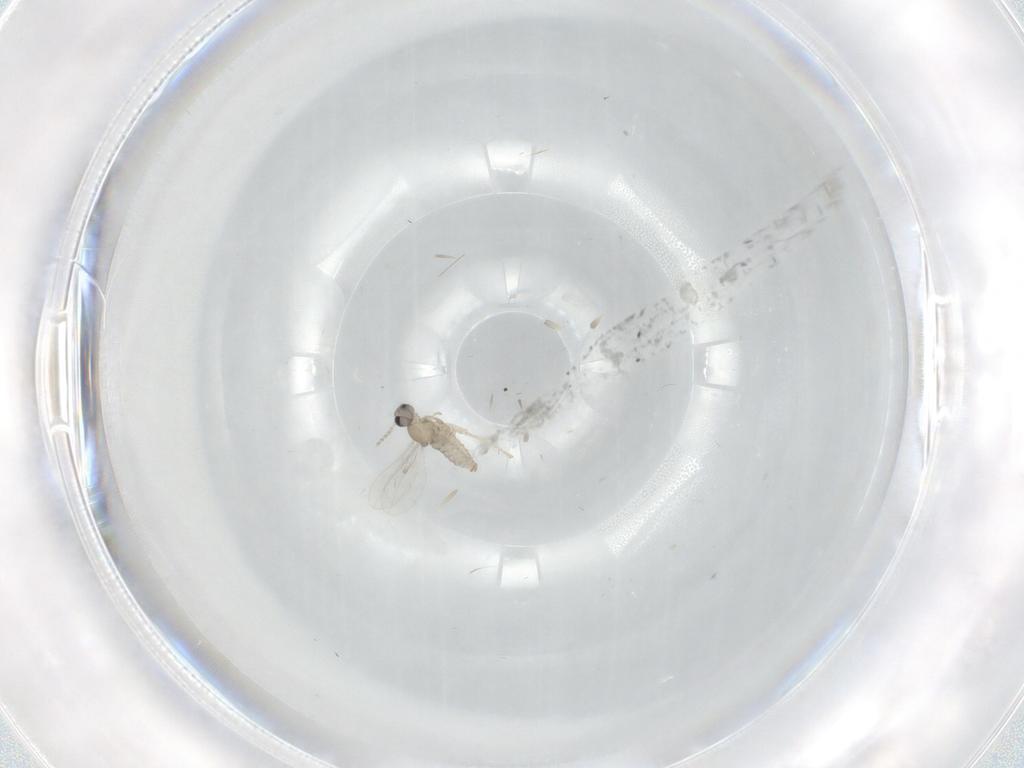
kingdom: Animalia
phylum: Arthropoda
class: Insecta
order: Diptera
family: Cecidomyiidae
